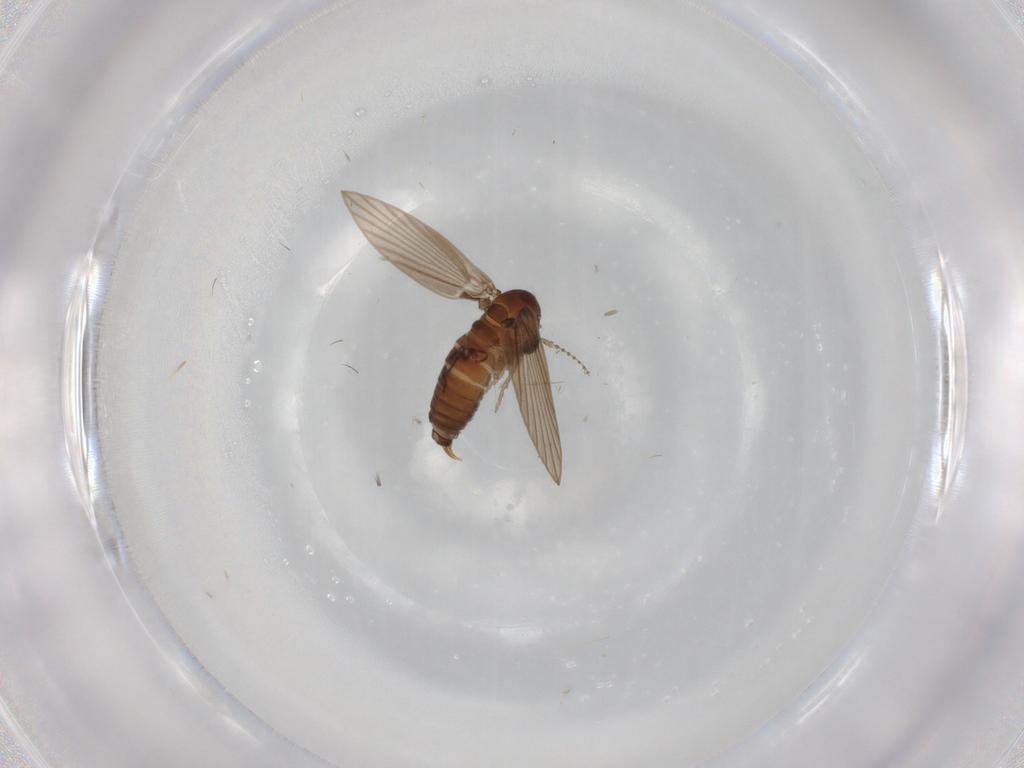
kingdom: Animalia
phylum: Arthropoda
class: Insecta
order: Diptera
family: Psychodidae
